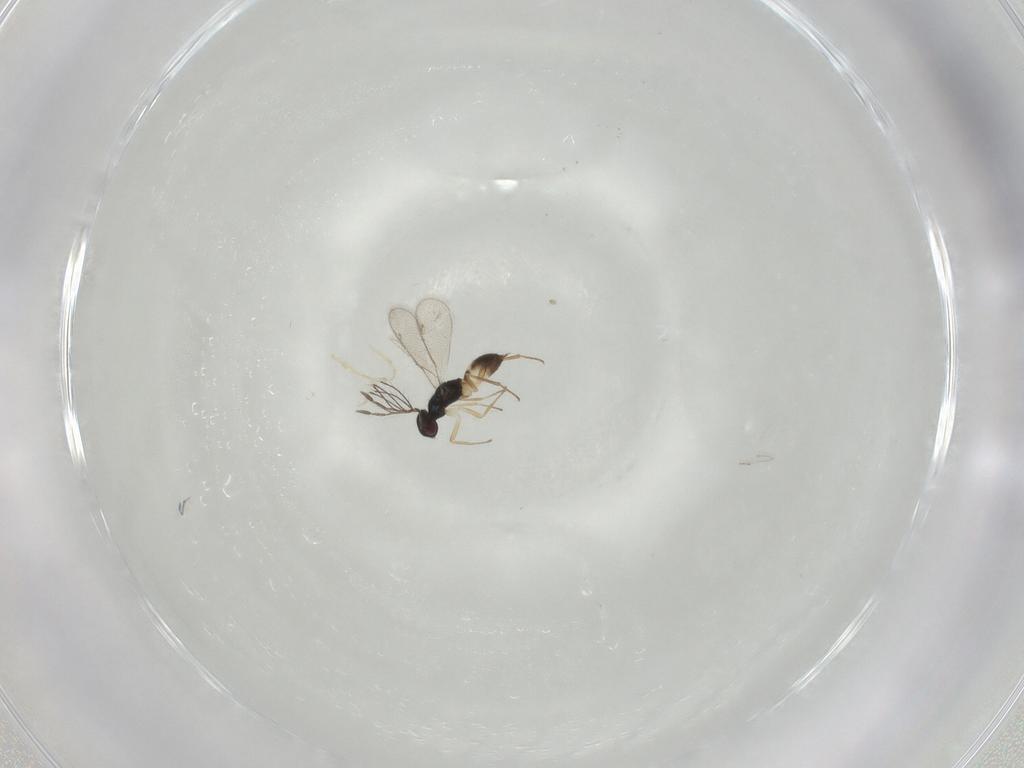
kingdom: Animalia
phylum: Arthropoda
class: Insecta
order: Hymenoptera
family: Eulophidae
